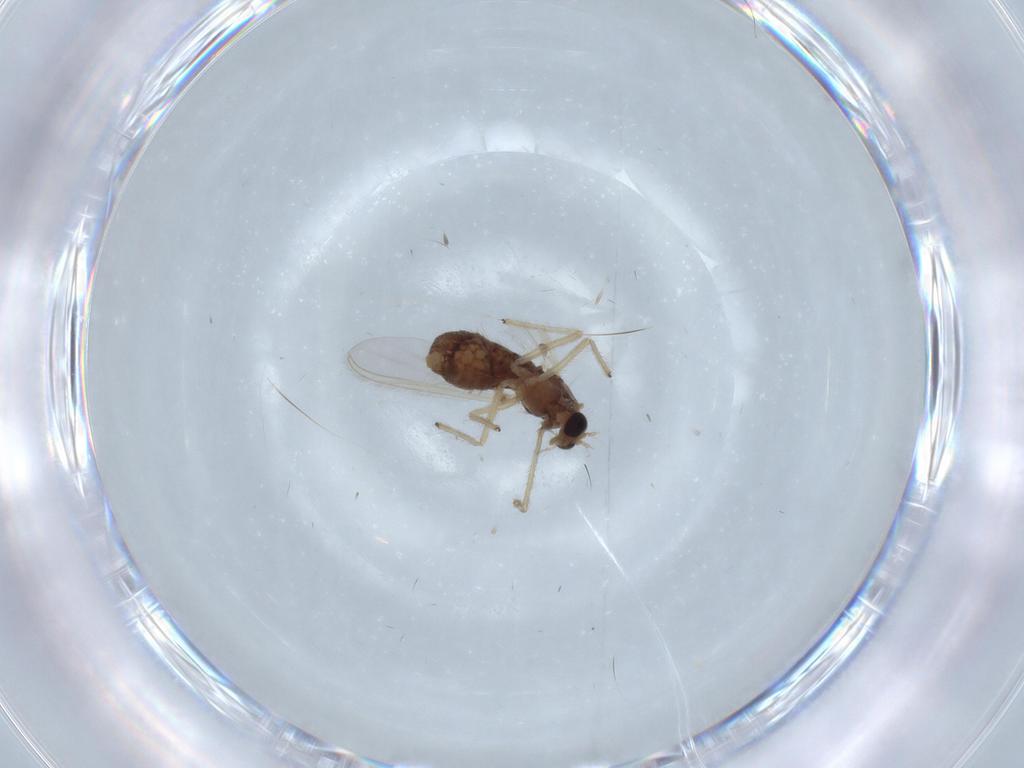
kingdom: Animalia
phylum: Arthropoda
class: Insecta
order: Diptera
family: Chironomidae
